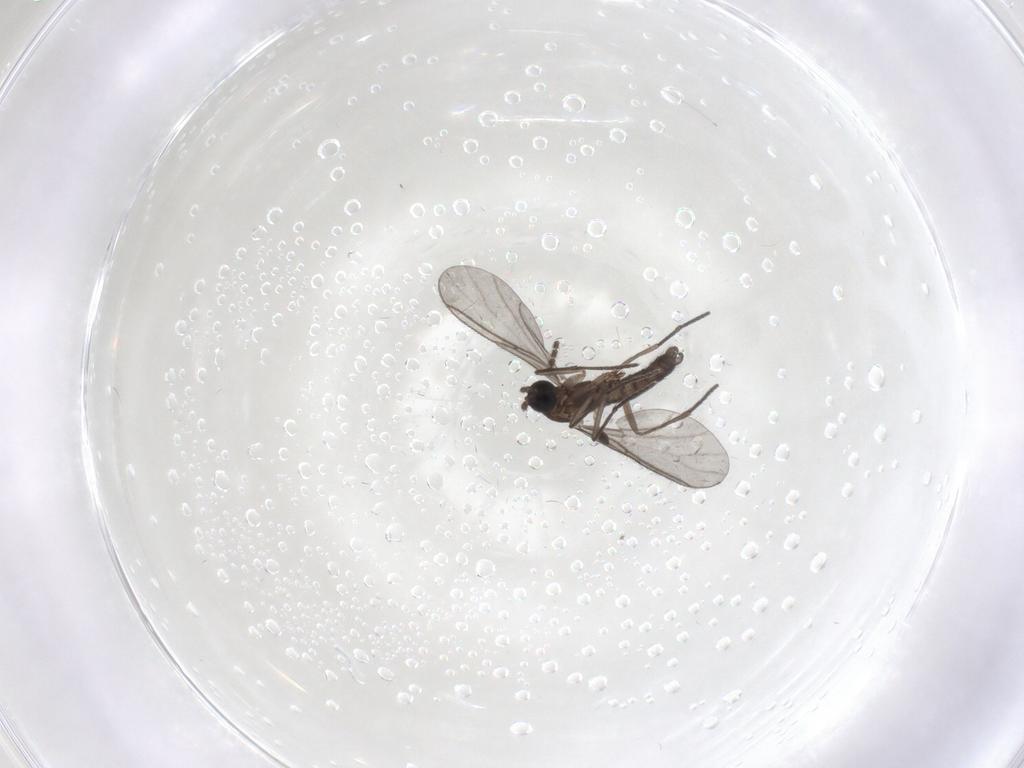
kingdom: Animalia
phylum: Arthropoda
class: Insecta
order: Diptera
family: Sciaridae
